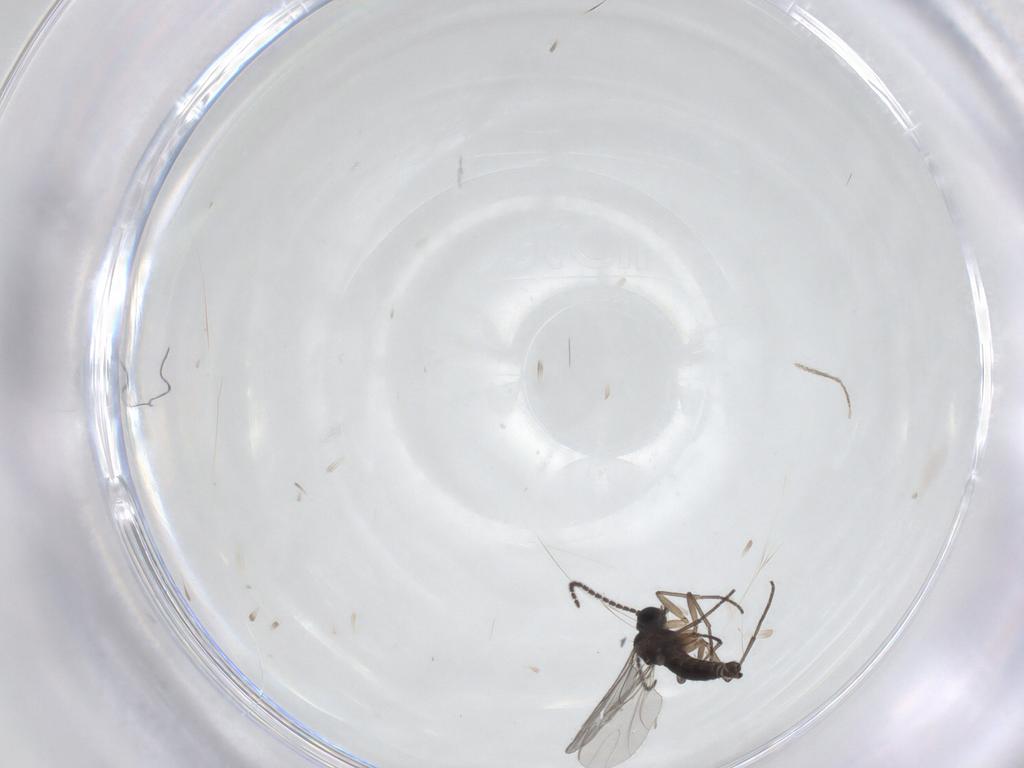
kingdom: Animalia
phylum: Arthropoda
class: Insecta
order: Diptera
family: Sciaridae
